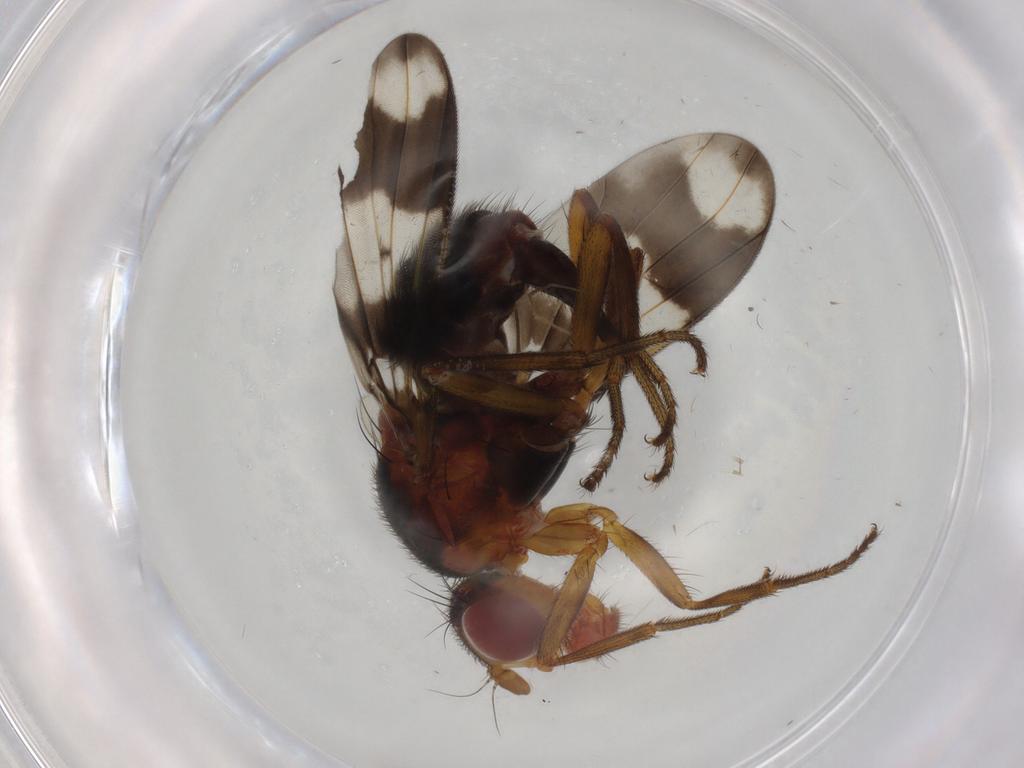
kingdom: Animalia
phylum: Arthropoda
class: Insecta
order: Diptera
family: Richardiidae
